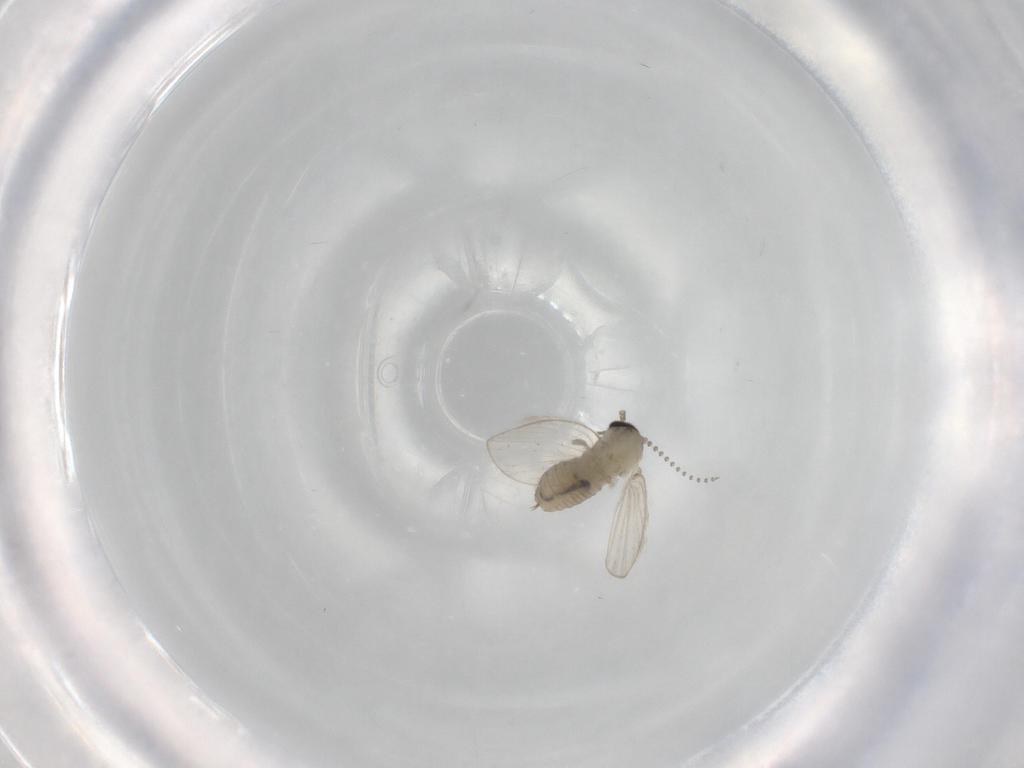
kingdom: Animalia
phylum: Arthropoda
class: Insecta
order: Diptera
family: Psychodidae
